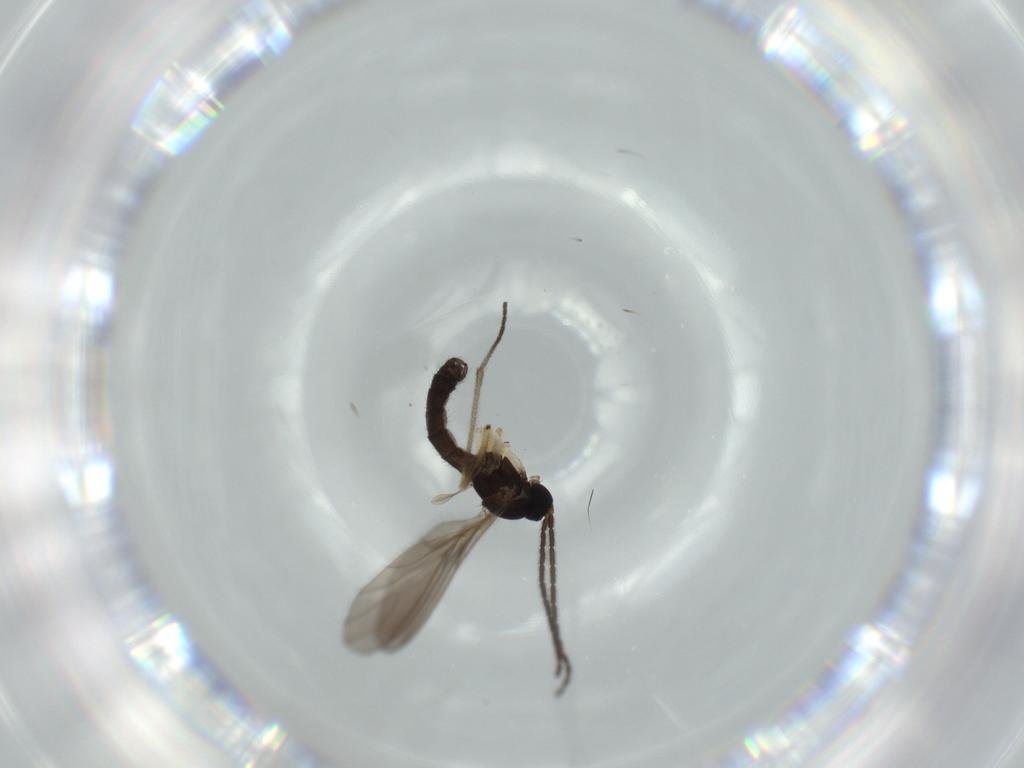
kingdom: Animalia
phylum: Arthropoda
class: Insecta
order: Diptera
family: Sciaridae
